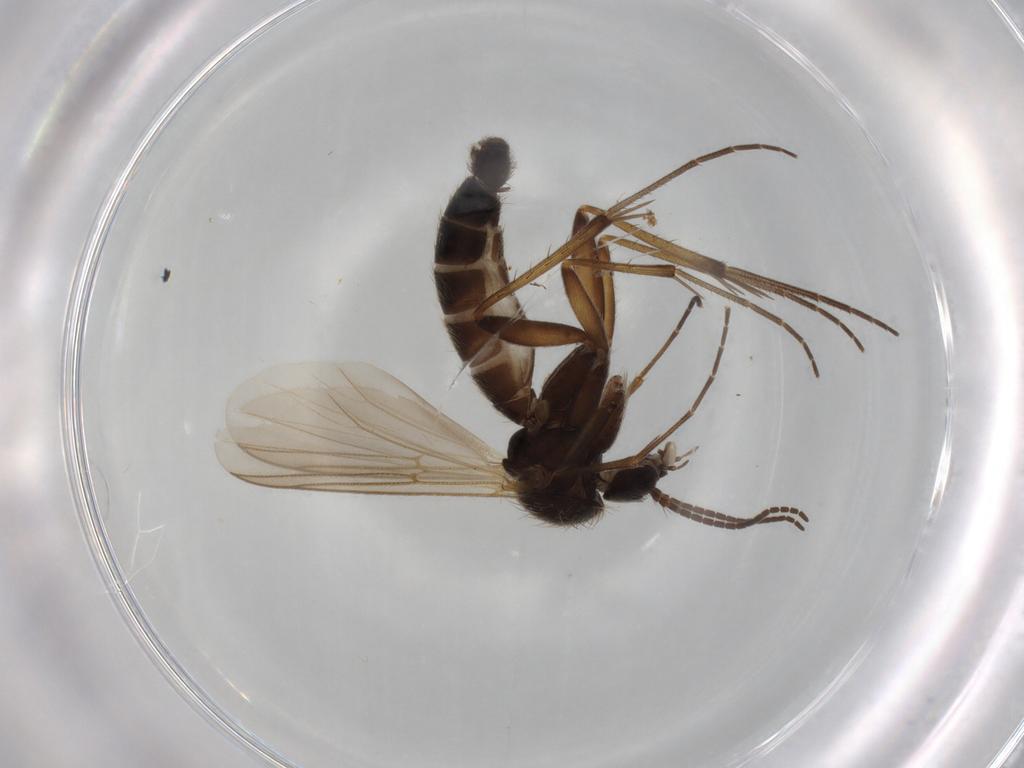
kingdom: Animalia
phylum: Arthropoda
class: Insecta
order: Diptera
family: Mycetophilidae
